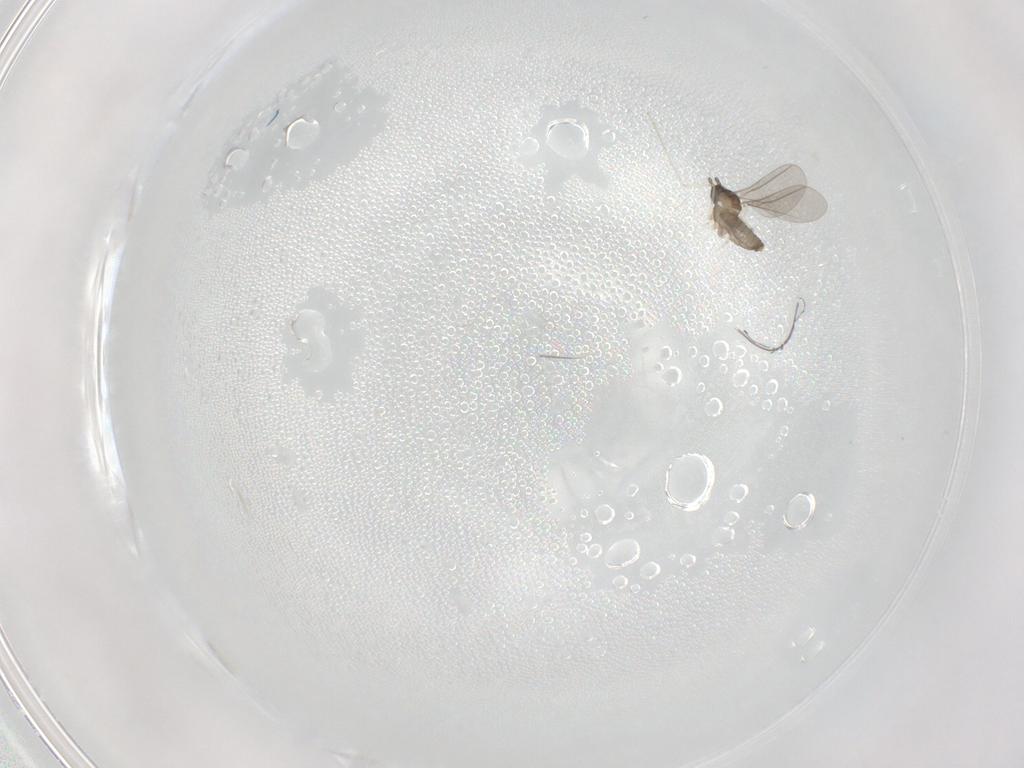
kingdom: Animalia
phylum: Arthropoda
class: Insecta
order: Diptera
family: Cecidomyiidae
